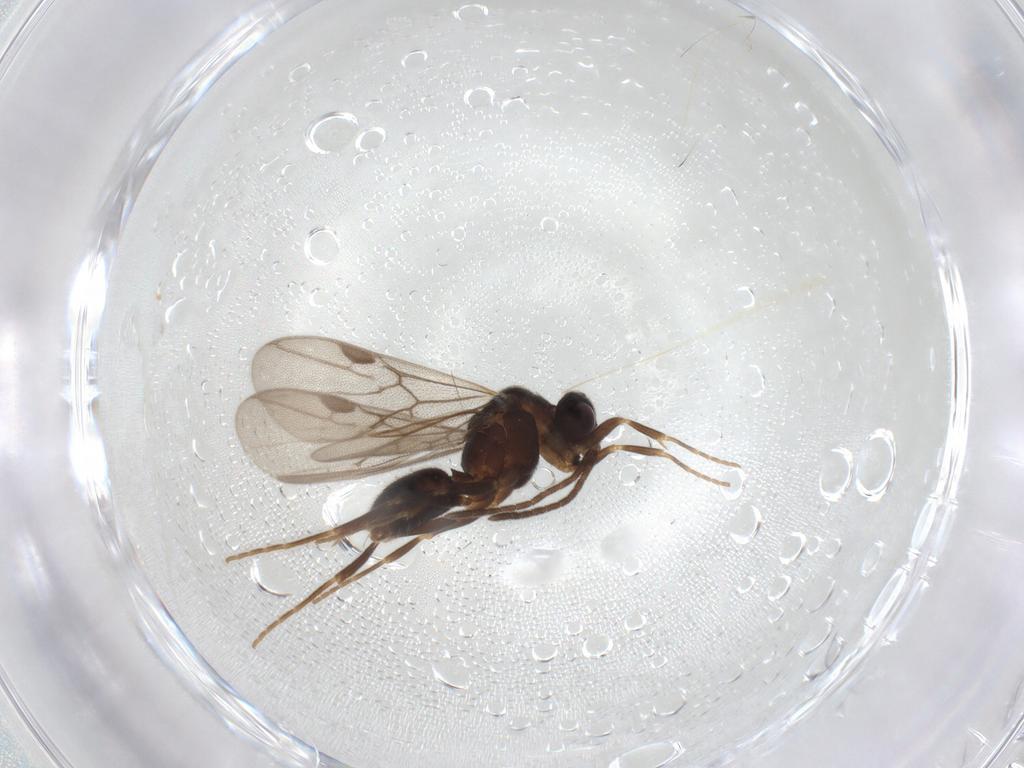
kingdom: Animalia
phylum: Arthropoda
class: Insecta
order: Hymenoptera
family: Formicidae
